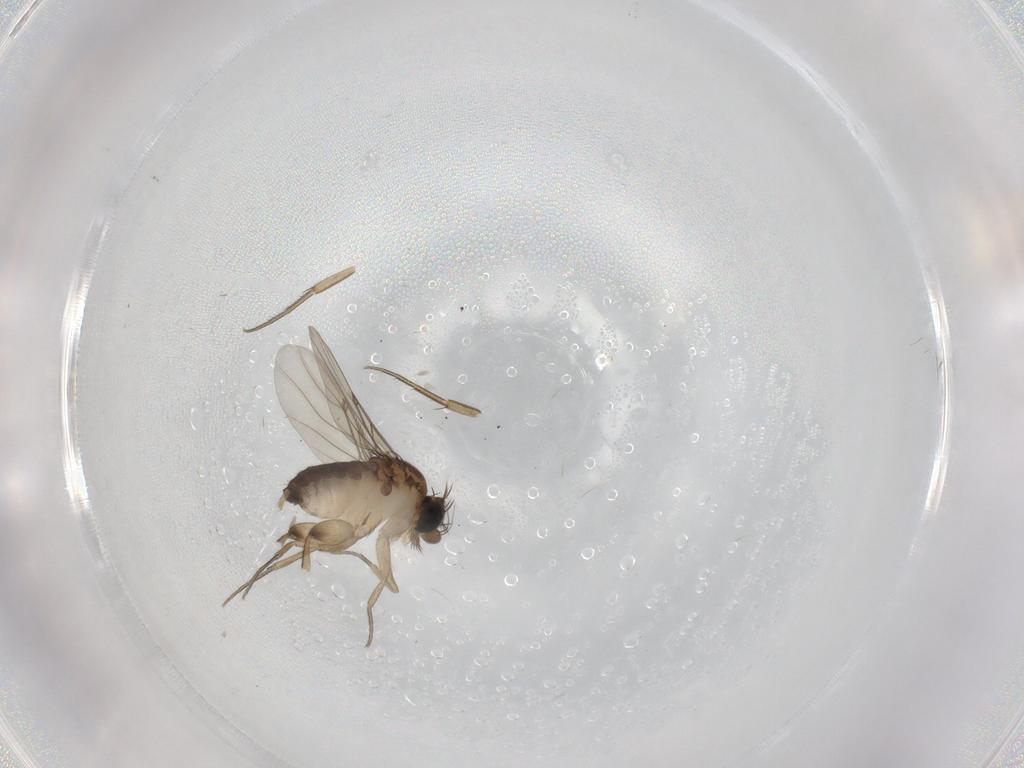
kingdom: Animalia
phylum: Arthropoda
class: Insecta
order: Diptera
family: Phoridae
